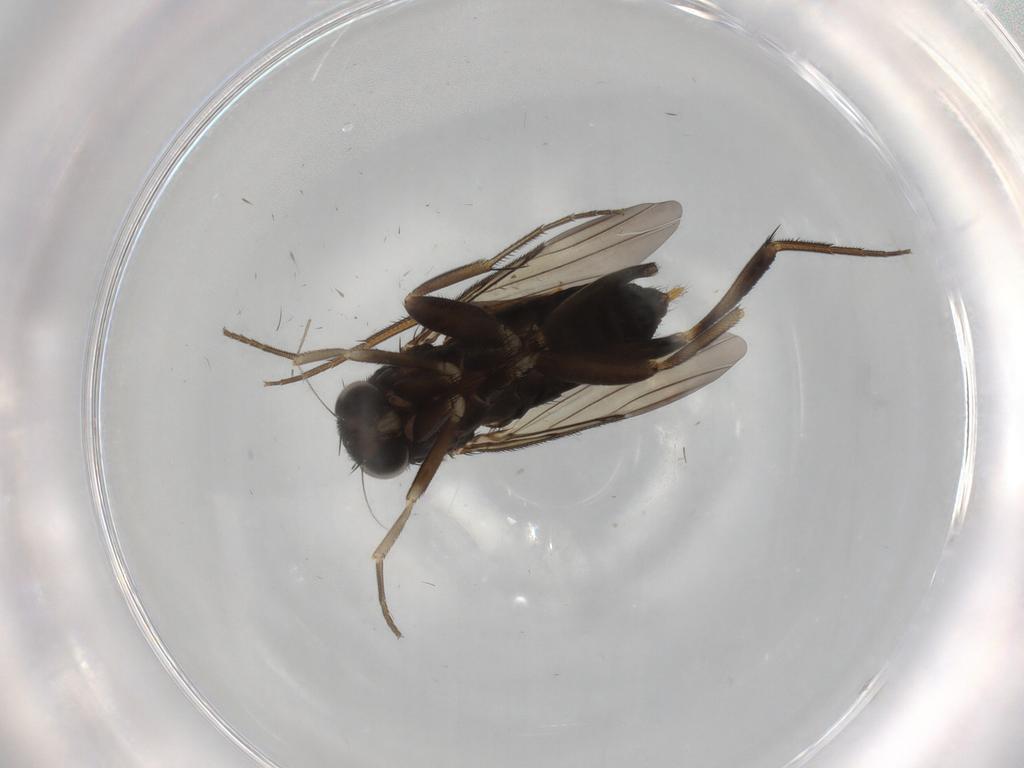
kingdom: Animalia
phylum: Arthropoda
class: Insecta
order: Diptera
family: Phoridae
